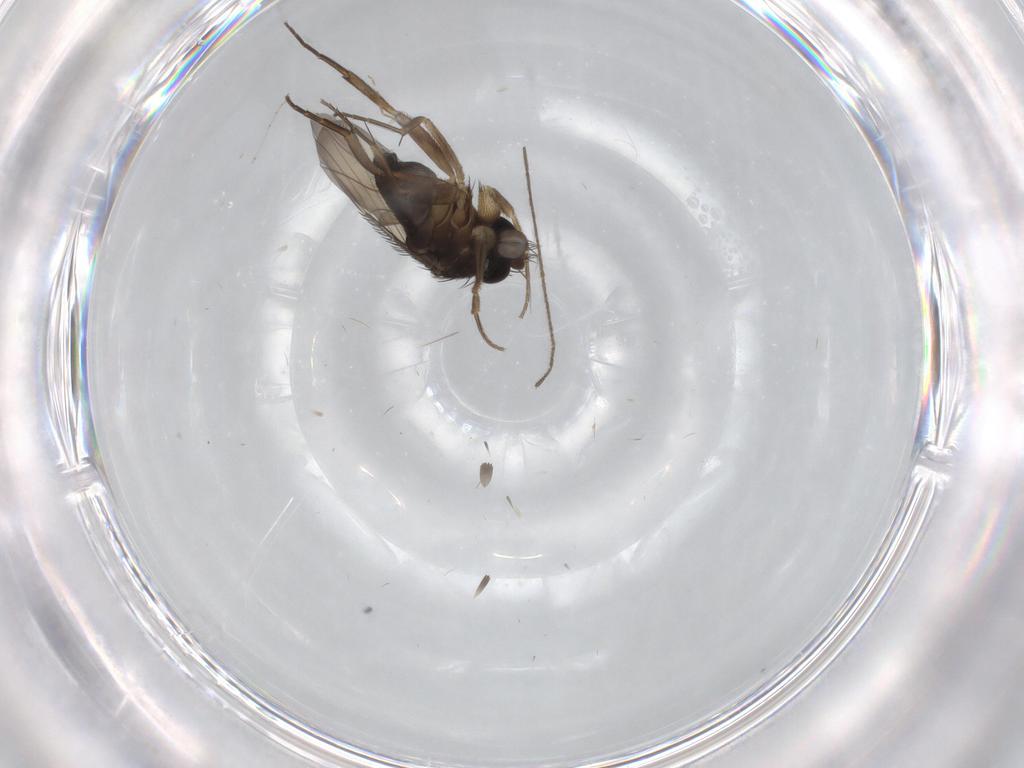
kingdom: Animalia
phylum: Arthropoda
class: Insecta
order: Diptera
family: Phoridae
